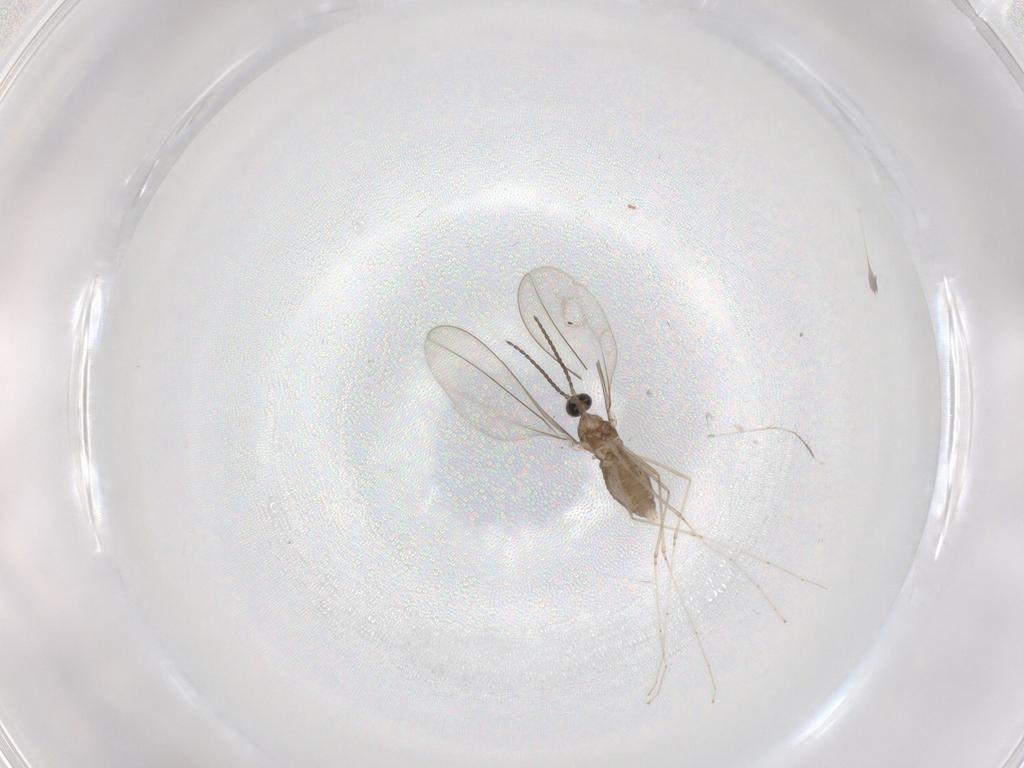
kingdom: Animalia
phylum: Arthropoda
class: Insecta
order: Diptera
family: Cecidomyiidae
